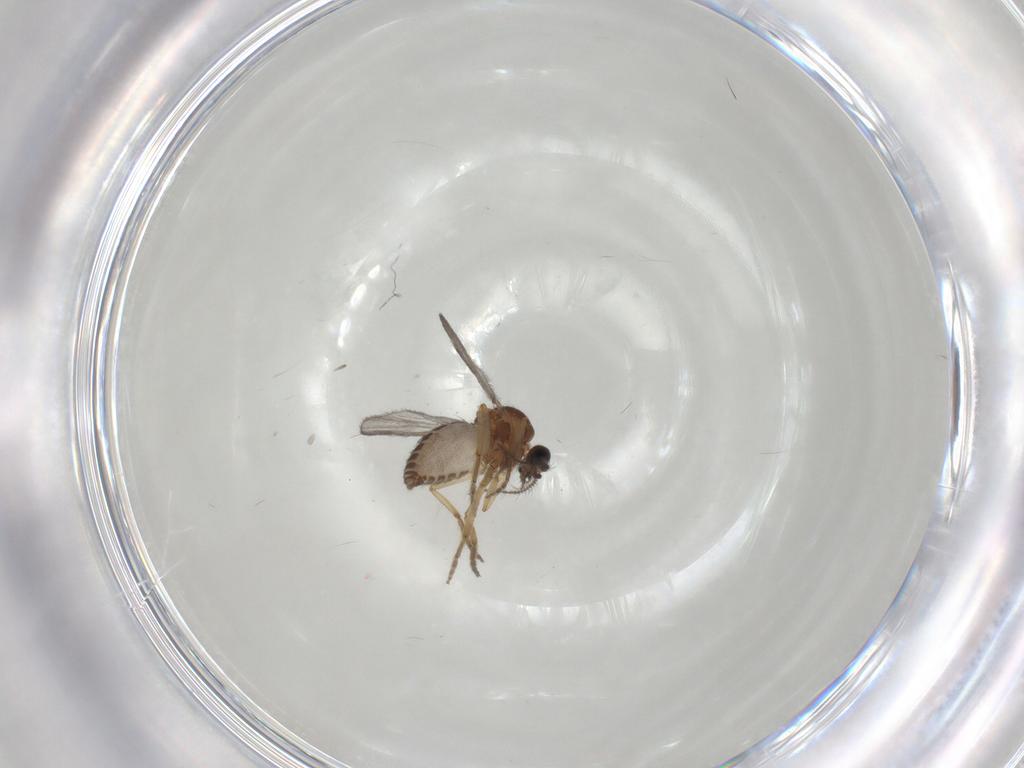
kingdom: Animalia
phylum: Arthropoda
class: Insecta
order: Diptera
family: Ceratopogonidae
